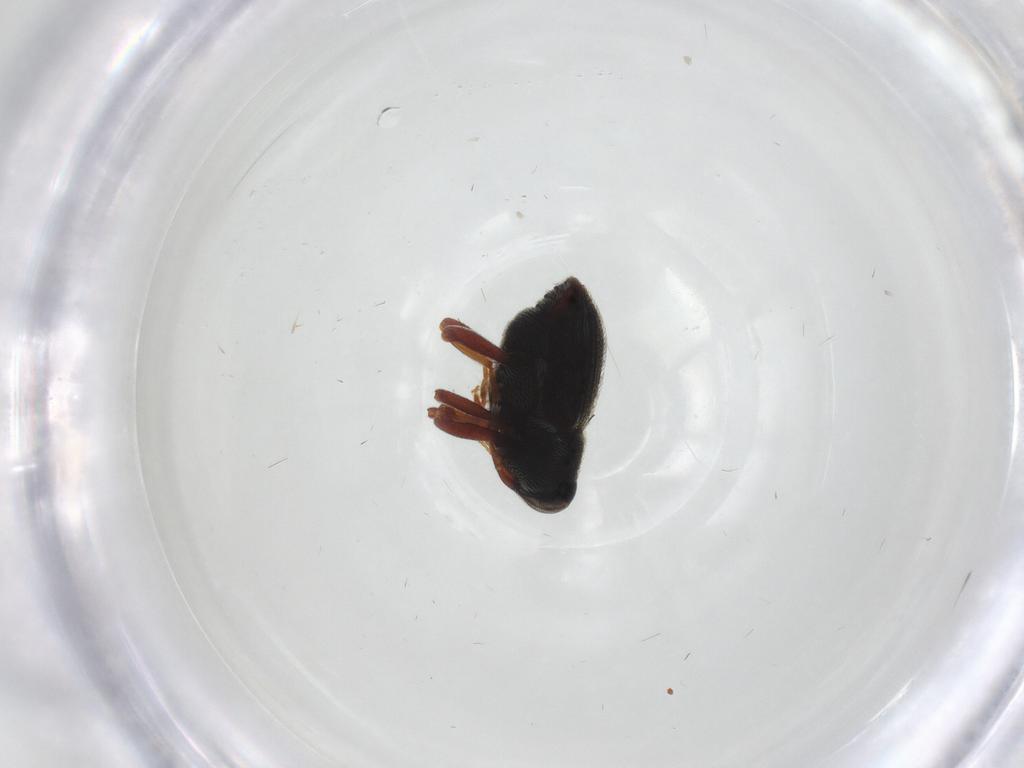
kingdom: Animalia
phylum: Arthropoda
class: Insecta
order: Coleoptera
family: Nosodendridae
